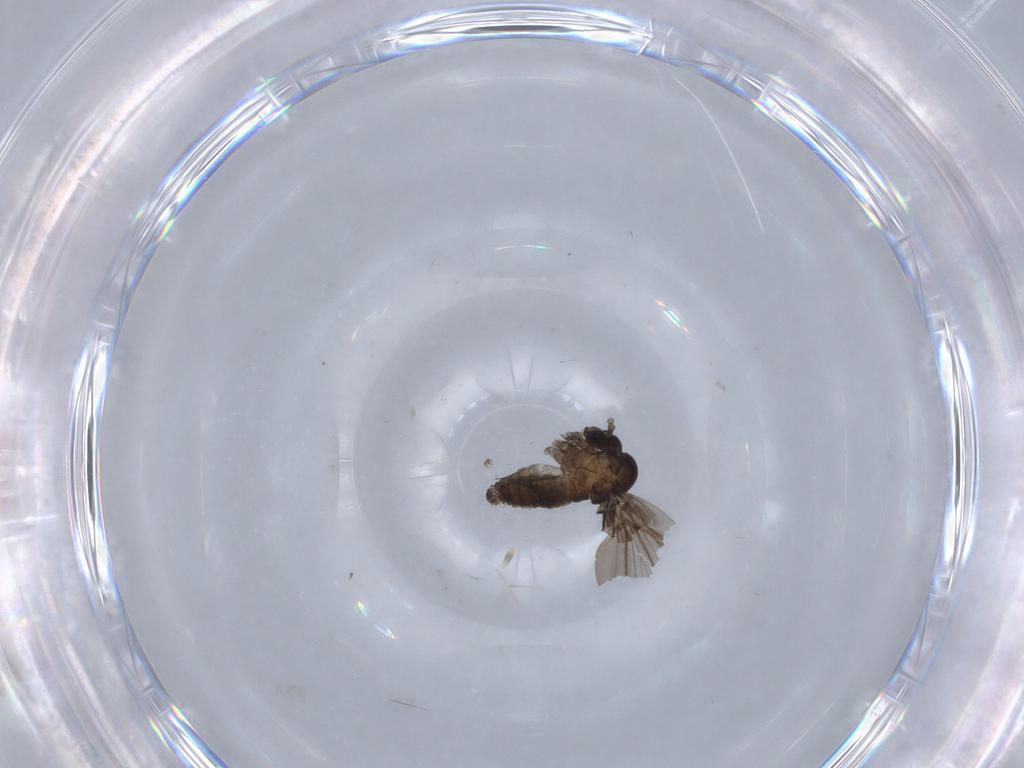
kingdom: Animalia
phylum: Arthropoda
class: Insecta
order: Diptera
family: Psychodidae
